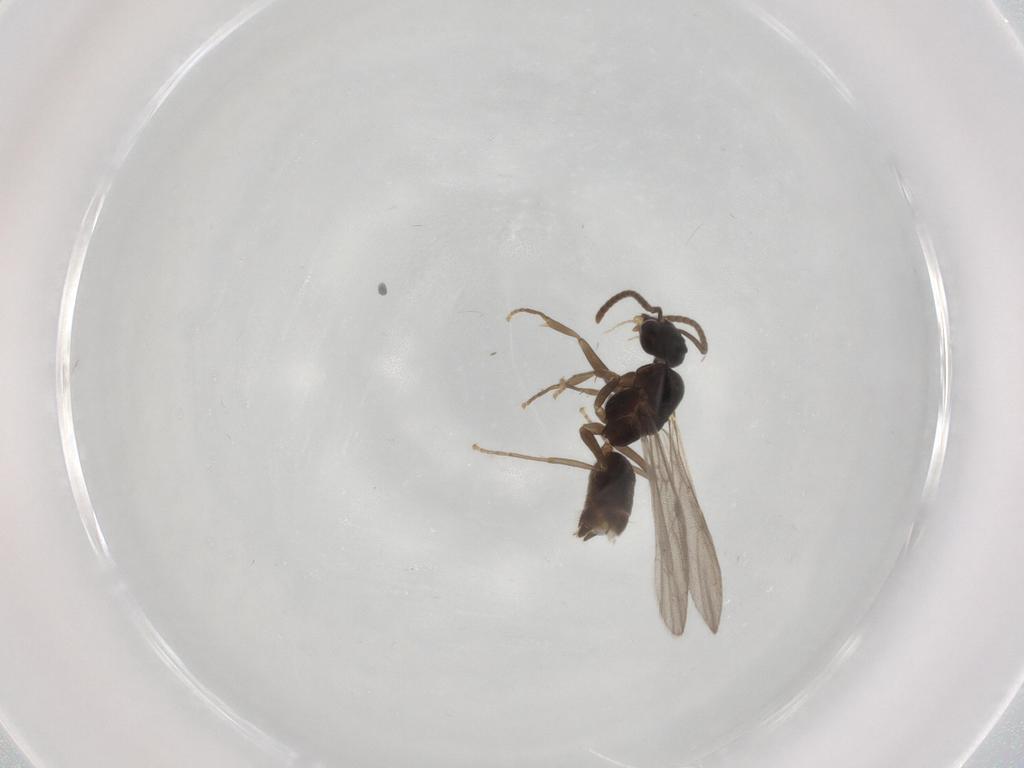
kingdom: Animalia
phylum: Arthropoda
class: Insecta
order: Hymenoptera
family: Formicidae
